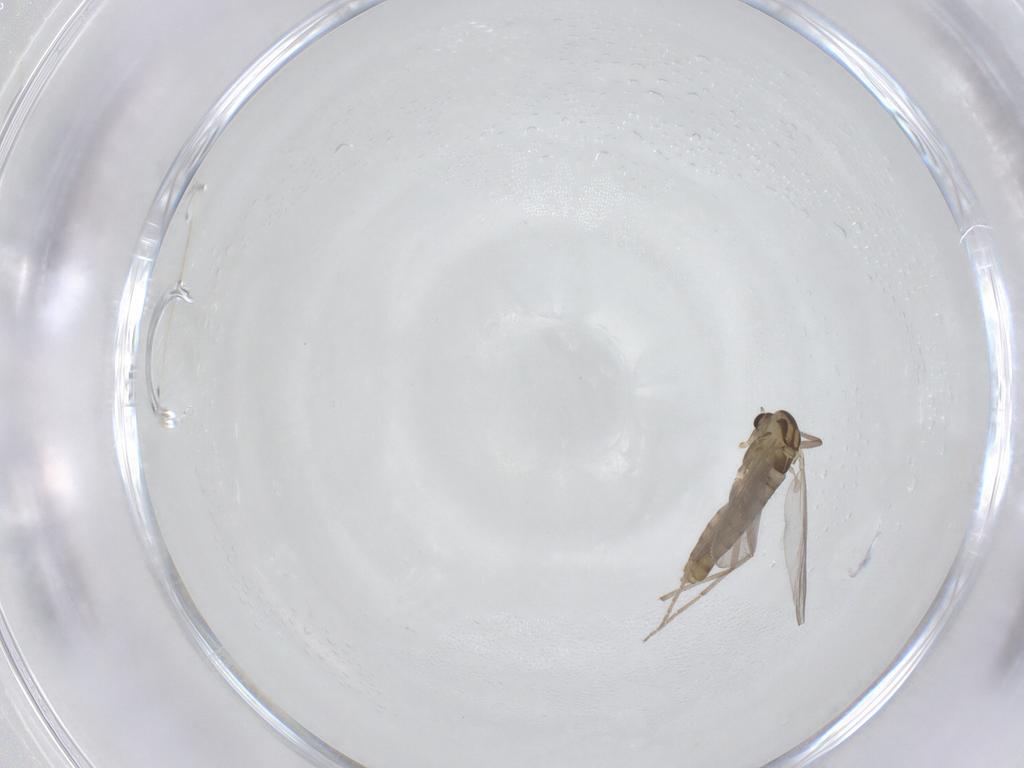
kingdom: Animalia
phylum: Arthropoda
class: Insecta
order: Diptera
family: Chironomidae
